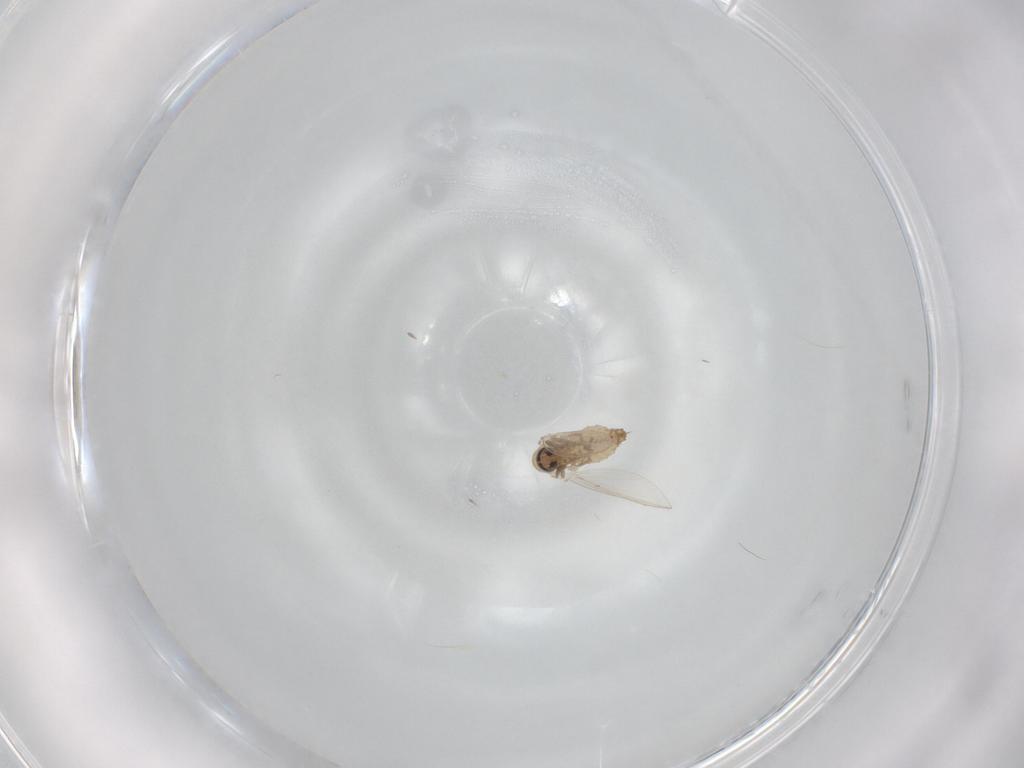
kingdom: Animalia
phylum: Arthropoda
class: Insecta
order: Diptera
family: Psychodidae
